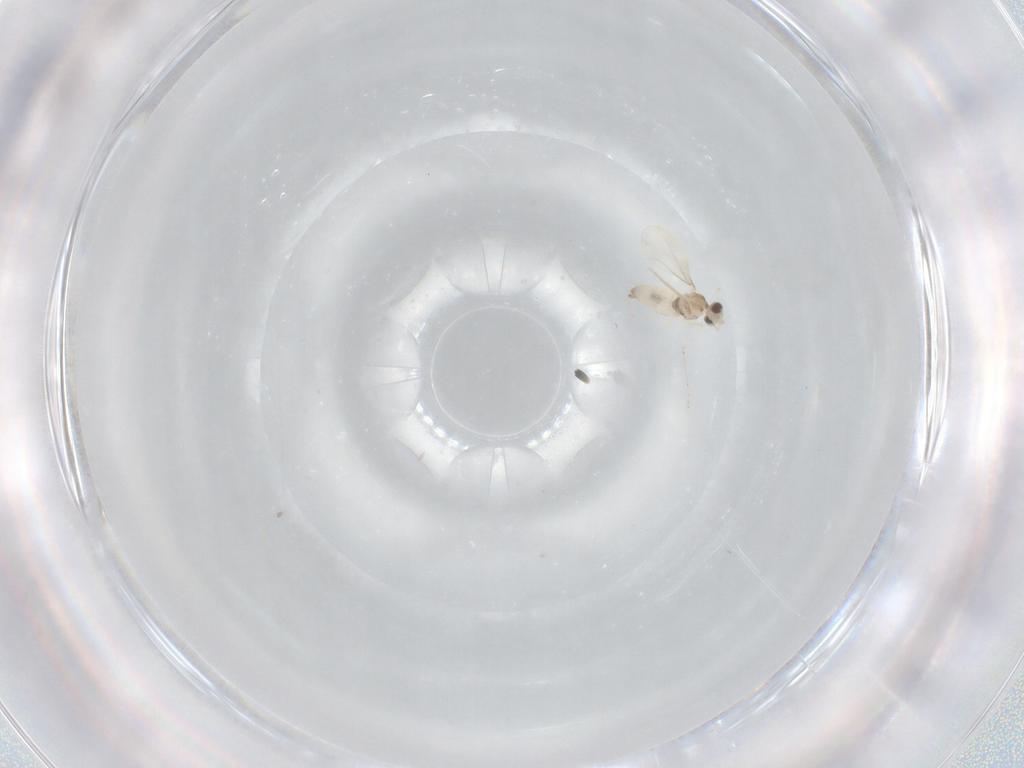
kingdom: Animalia
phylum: Arthropoda
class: Insecta
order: Diptera
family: Cecidomyiidae
